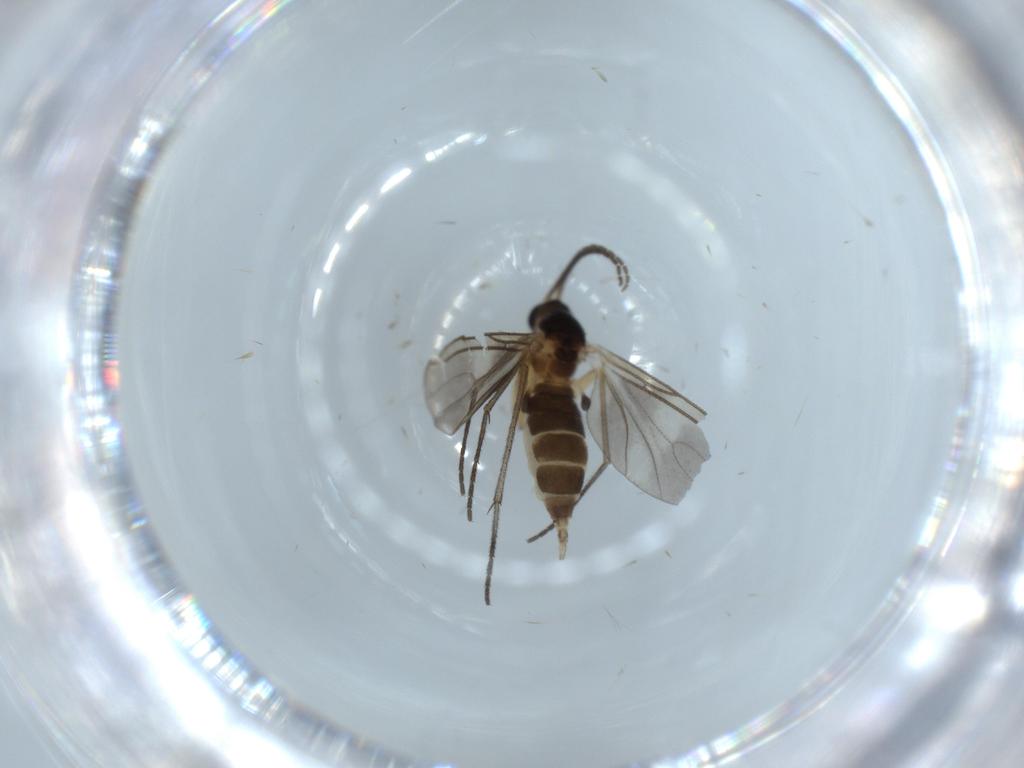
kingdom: Animalia
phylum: Arthropoda
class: Insecta
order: Diptera
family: Sciaridae
